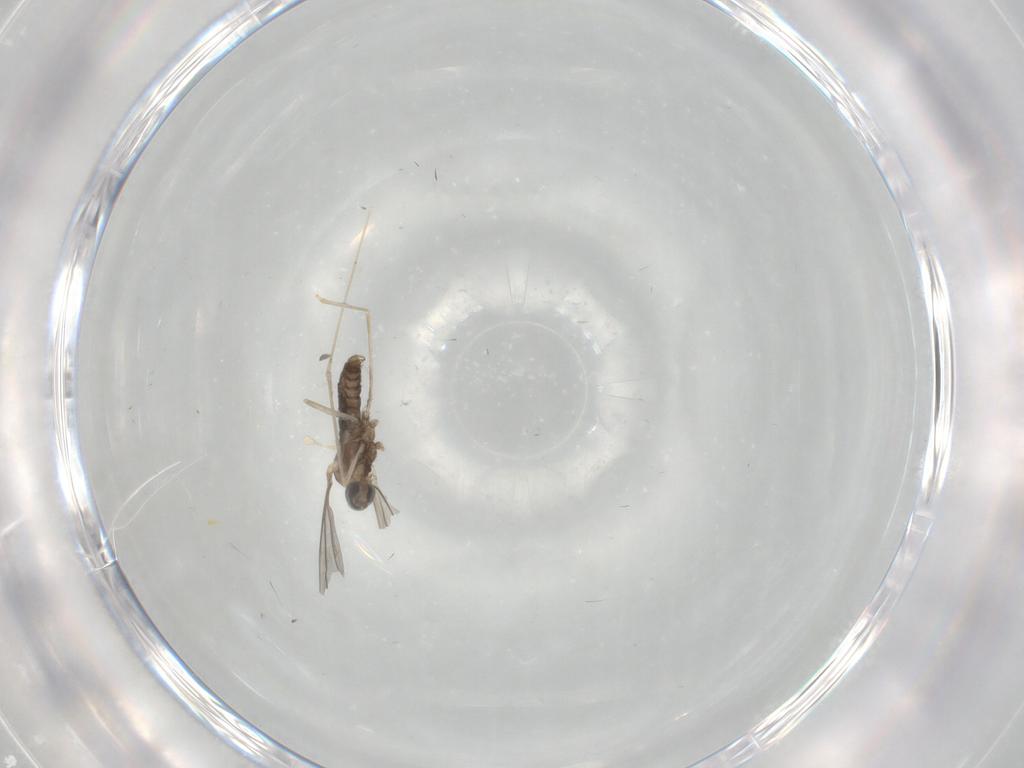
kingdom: Animalia
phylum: Arthropoda
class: Insecta
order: Diptera
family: Cecidomyiidae
